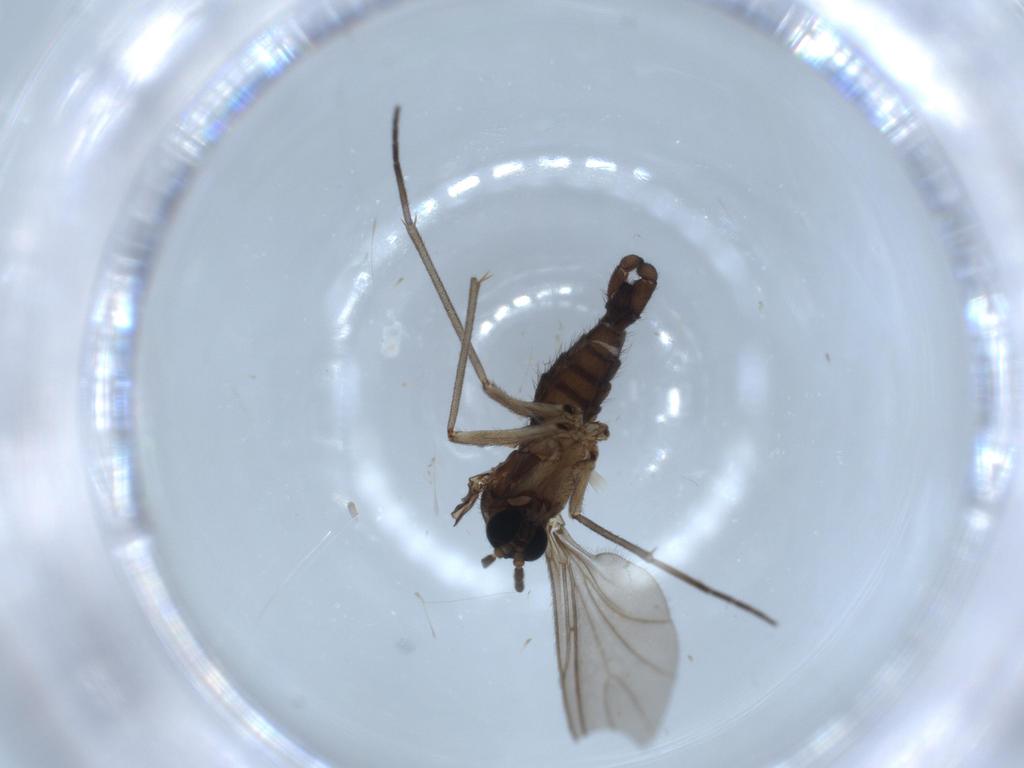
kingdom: Animalia
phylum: Arthropoda
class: Insecta
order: Diptera
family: Sciaridae
